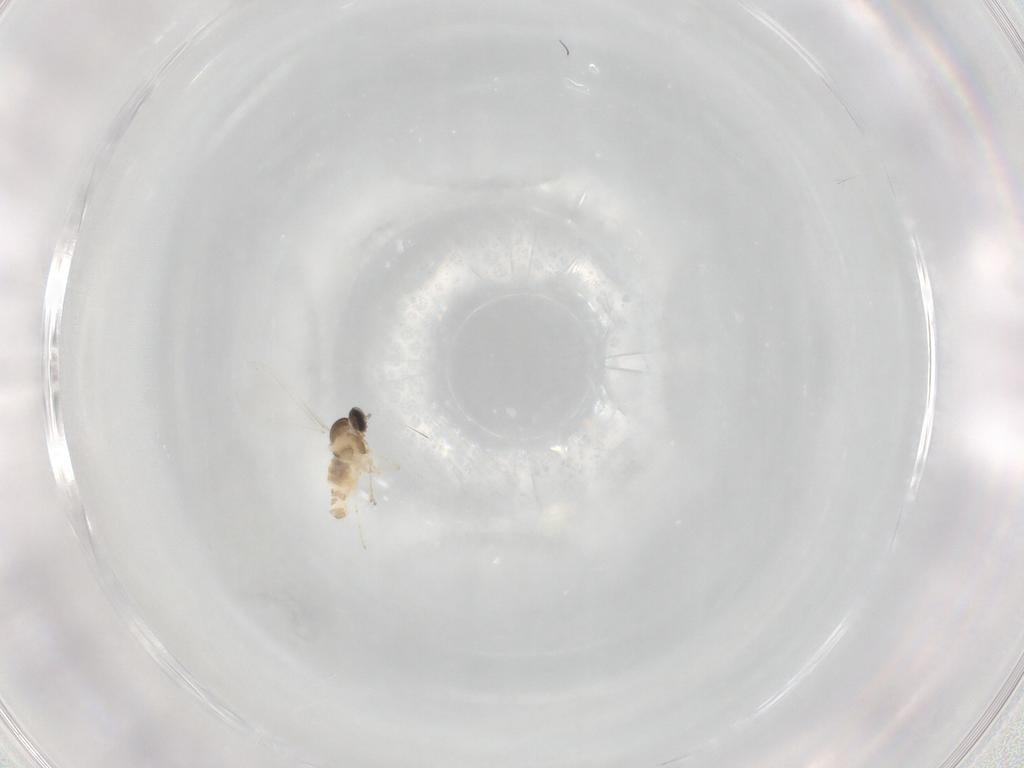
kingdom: Animalia
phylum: Arthropoda
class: Insecta
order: Diptera
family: Cecidomyiidae
